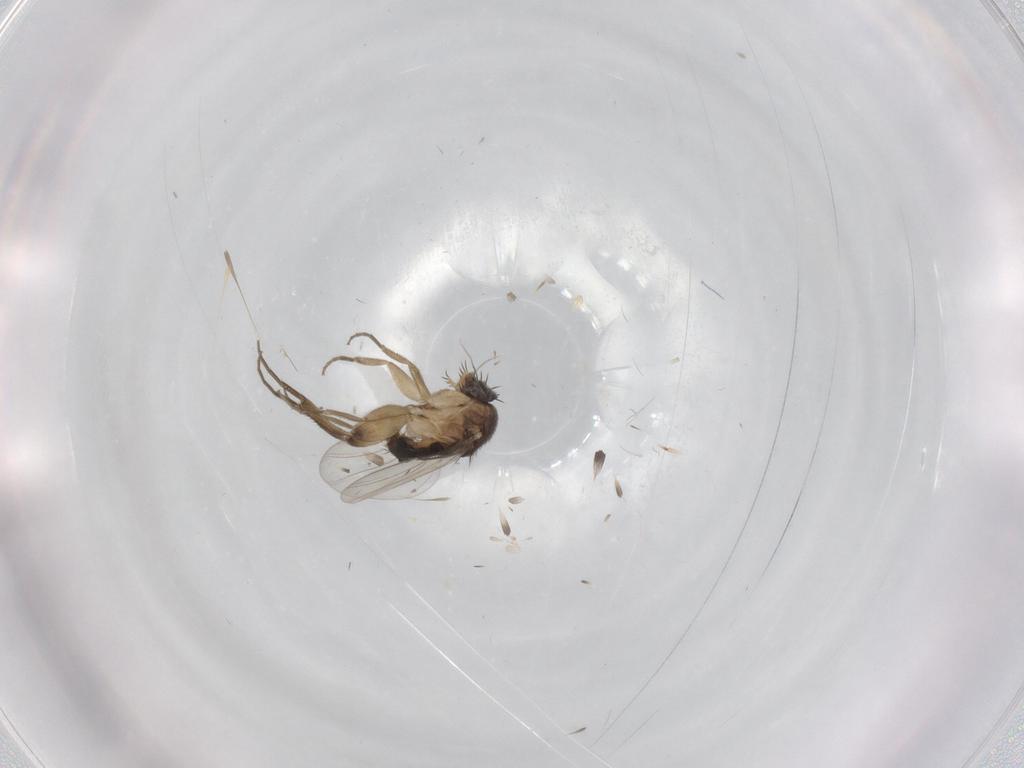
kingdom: Animalia
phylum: Arthropoda
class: Insecta
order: Diptera
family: Phoridae
